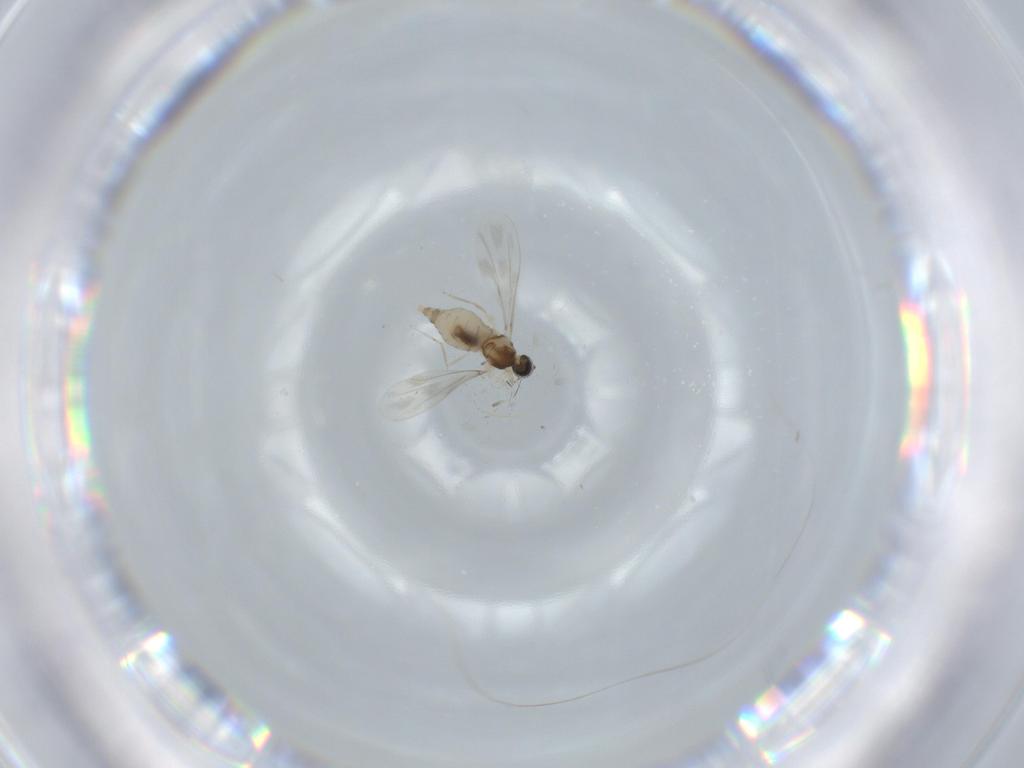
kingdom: Animalia
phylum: Arthropoda
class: Insecta
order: Diptera
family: Cecidomyiidae
